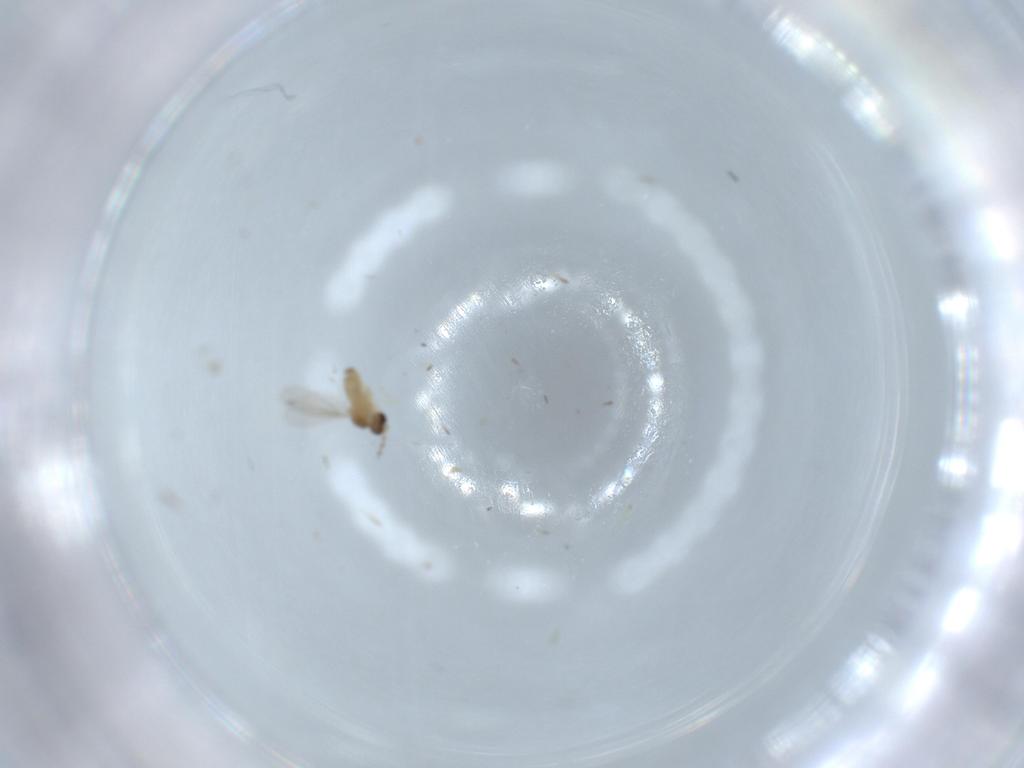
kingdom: Animalia
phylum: Arthropoda
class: Insecta
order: Diptera
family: Cecidomyiidae
